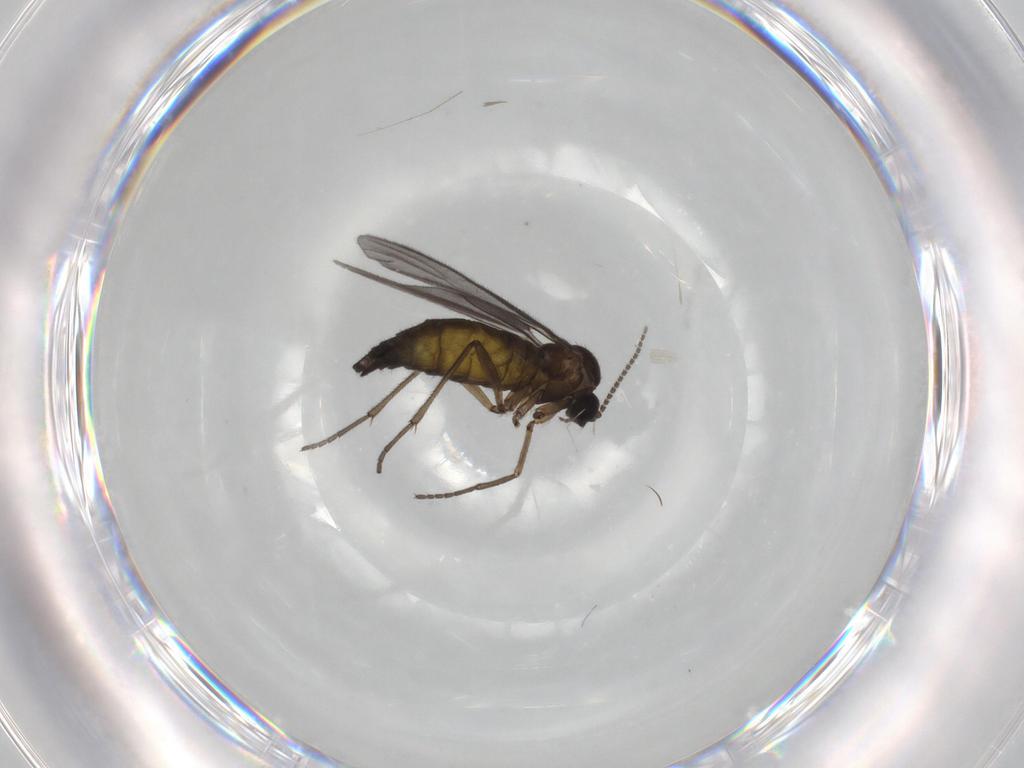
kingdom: Animalia
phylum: Arthropoda
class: Insecta
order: Diptera
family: Sciaridae
